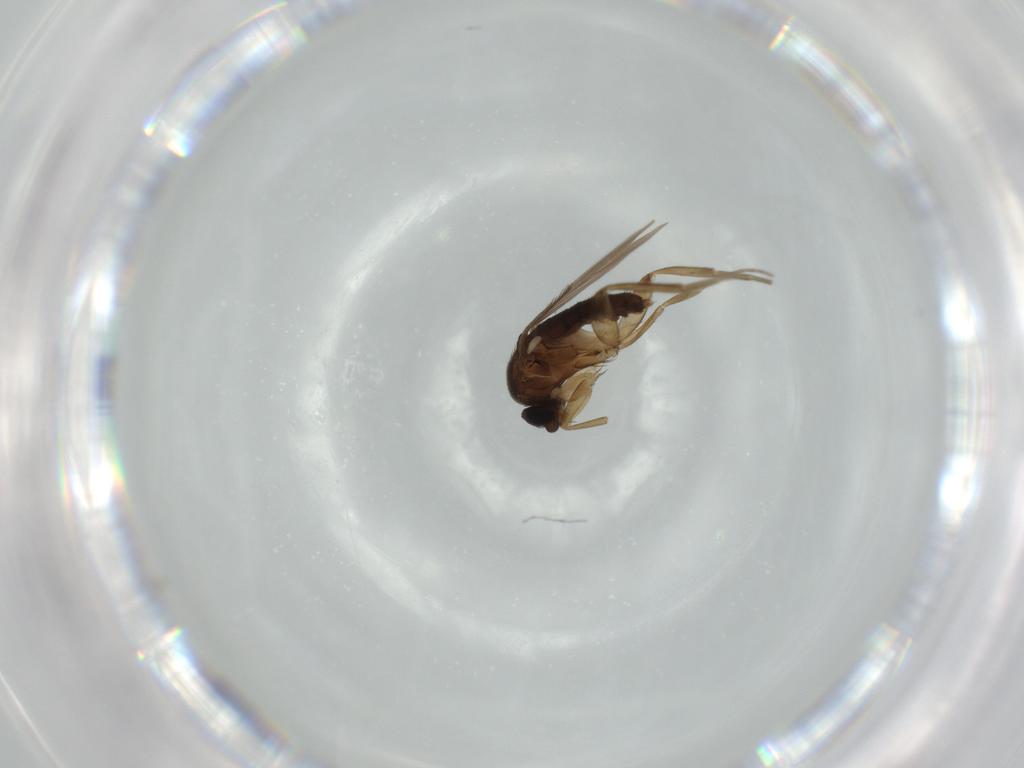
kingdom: Animalia
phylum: Arthropoda
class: Insecta
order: Diptera
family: Phoridae
